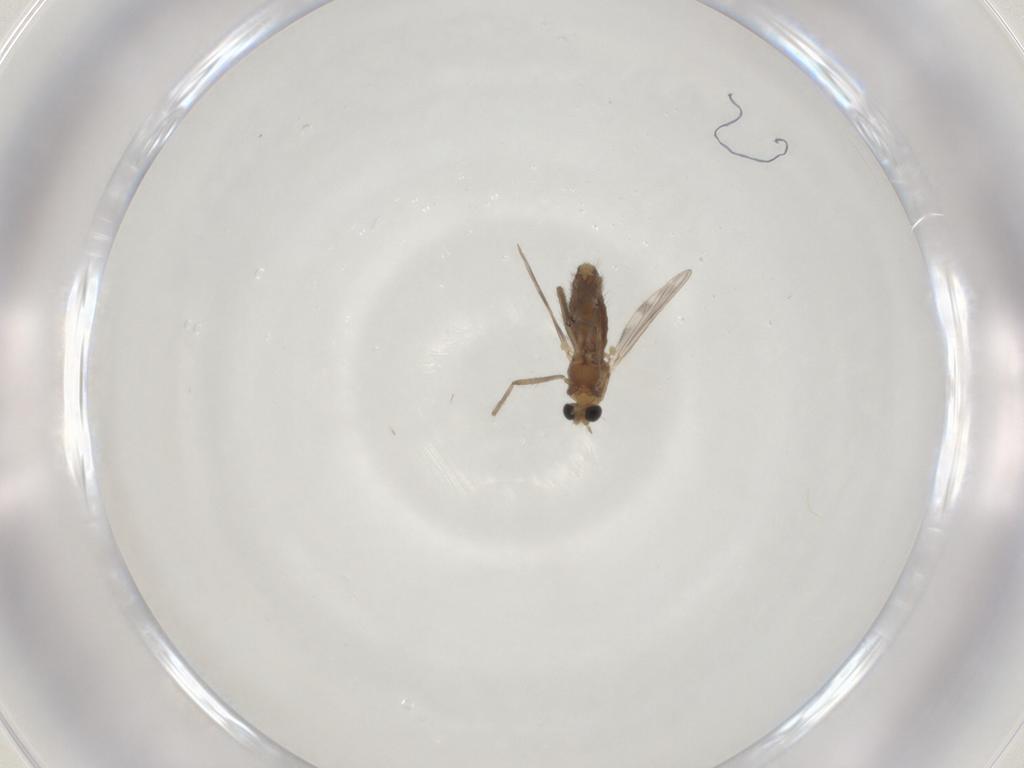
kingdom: Animalia
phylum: Arthropoda
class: Insecta
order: Diptera
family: Chironomidae
